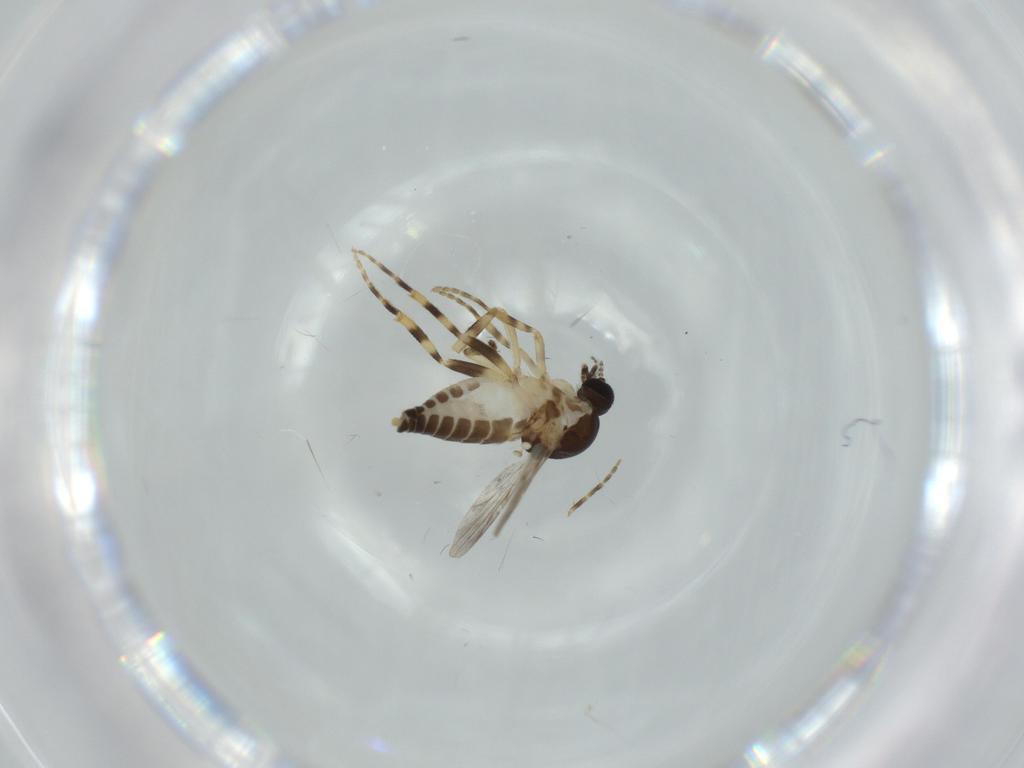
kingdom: Animalia
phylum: Arthropoda
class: Insecta
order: Diptera
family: Ceratopogonidae
